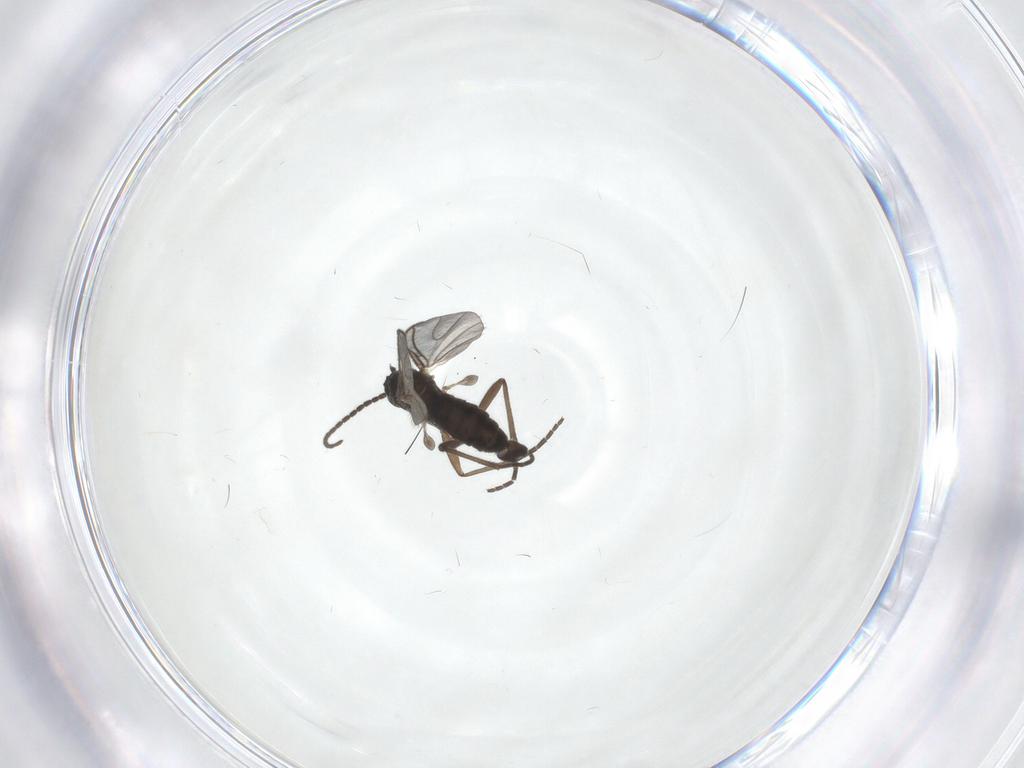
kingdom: Animalia
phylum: Arthropoda
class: Insecta
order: Diptera
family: Sciaridae
